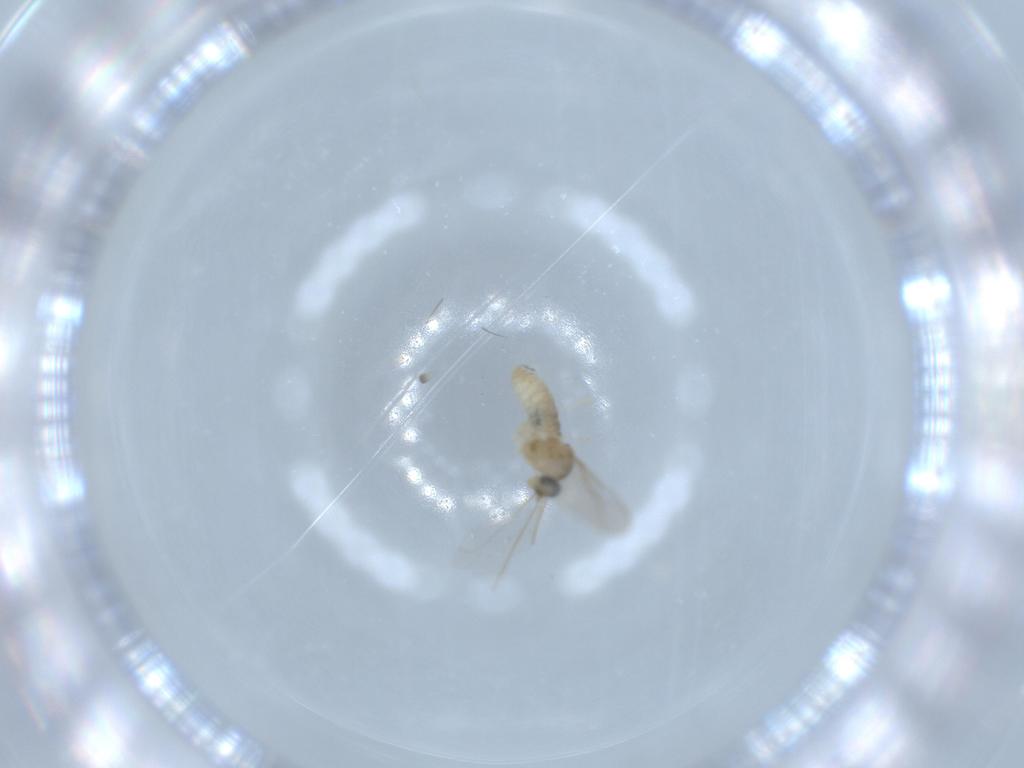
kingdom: Animalia
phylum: Arthropoda
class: Insecta
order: Diptera
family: Cecidomyiidae
